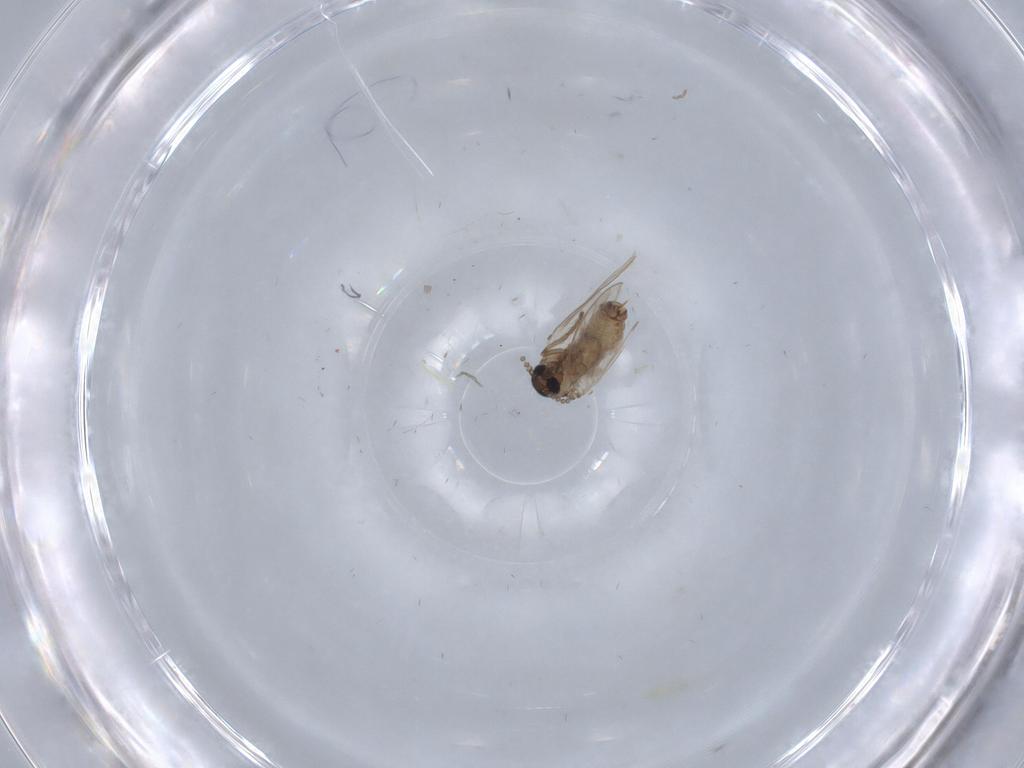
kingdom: Animalia
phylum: Arthropoda
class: Insecta
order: Diptera
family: Psychodidae
